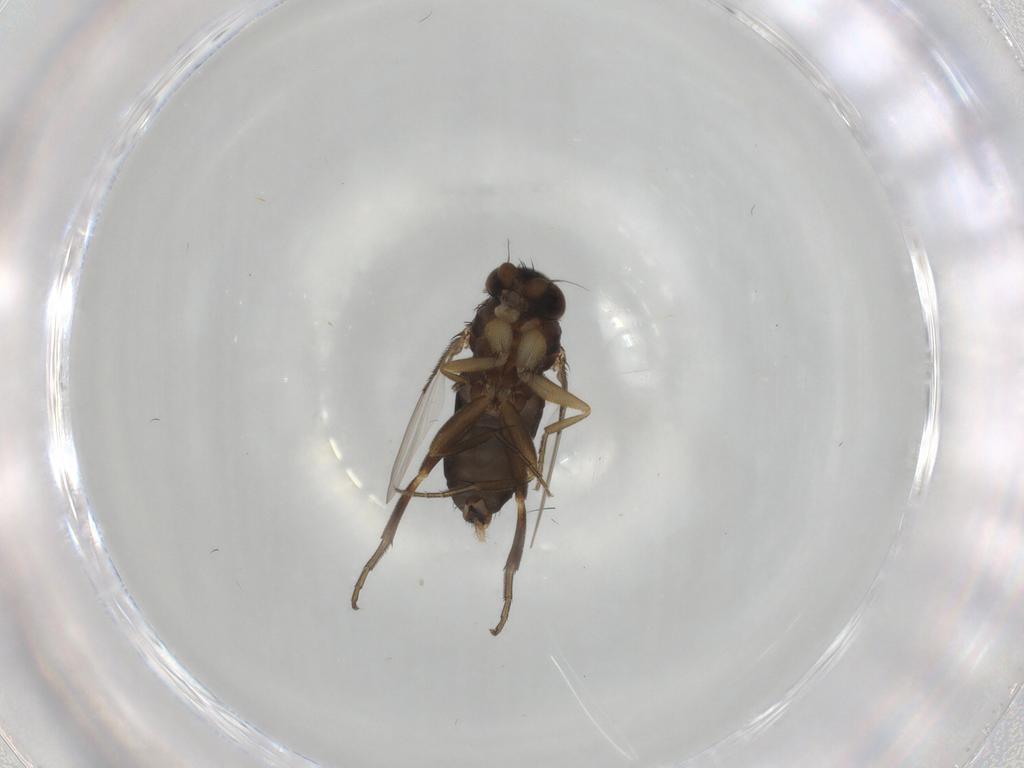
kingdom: Animalia
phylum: Arthropoda
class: Insecta
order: Diptera
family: Phoridae
